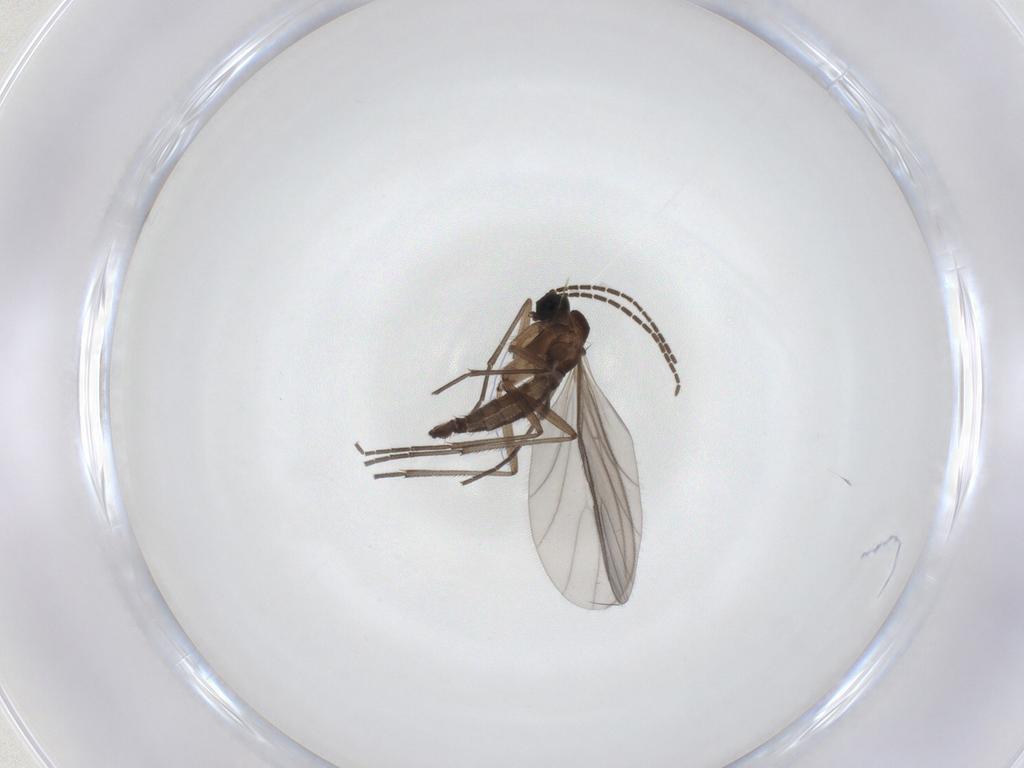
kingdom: Animalia
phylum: Arthropoda
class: Insecta
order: Diptera
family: Sciaridae
